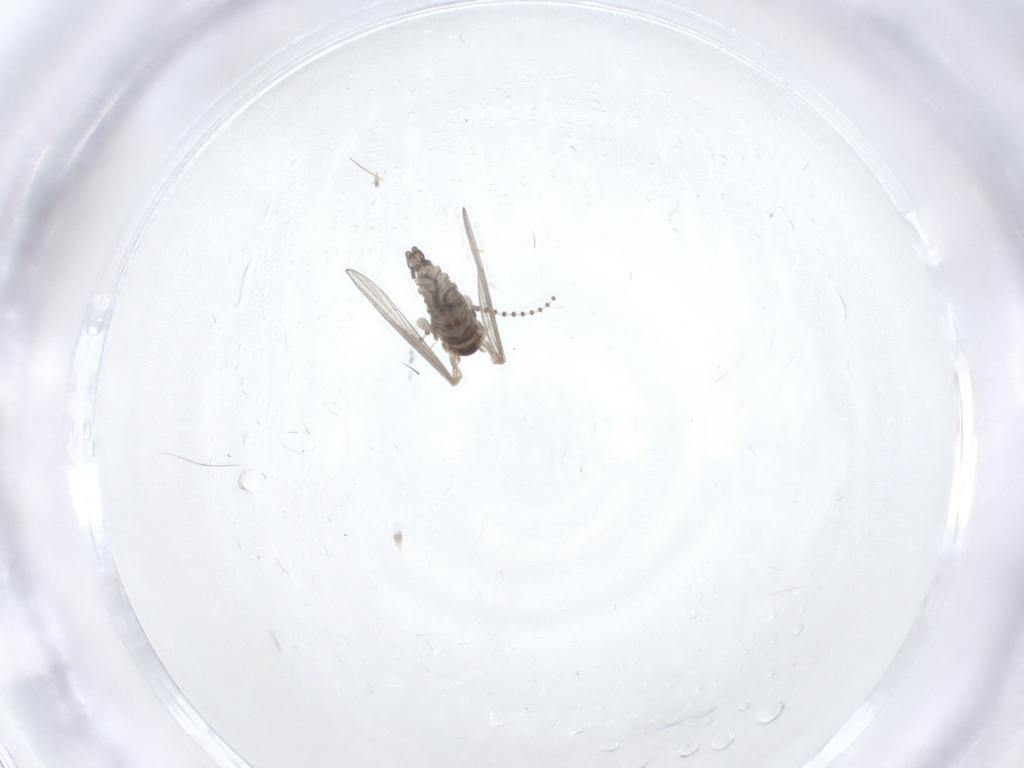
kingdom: Animalia
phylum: Arthropoda
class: Insecta
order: Diptera
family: Psychodidae
